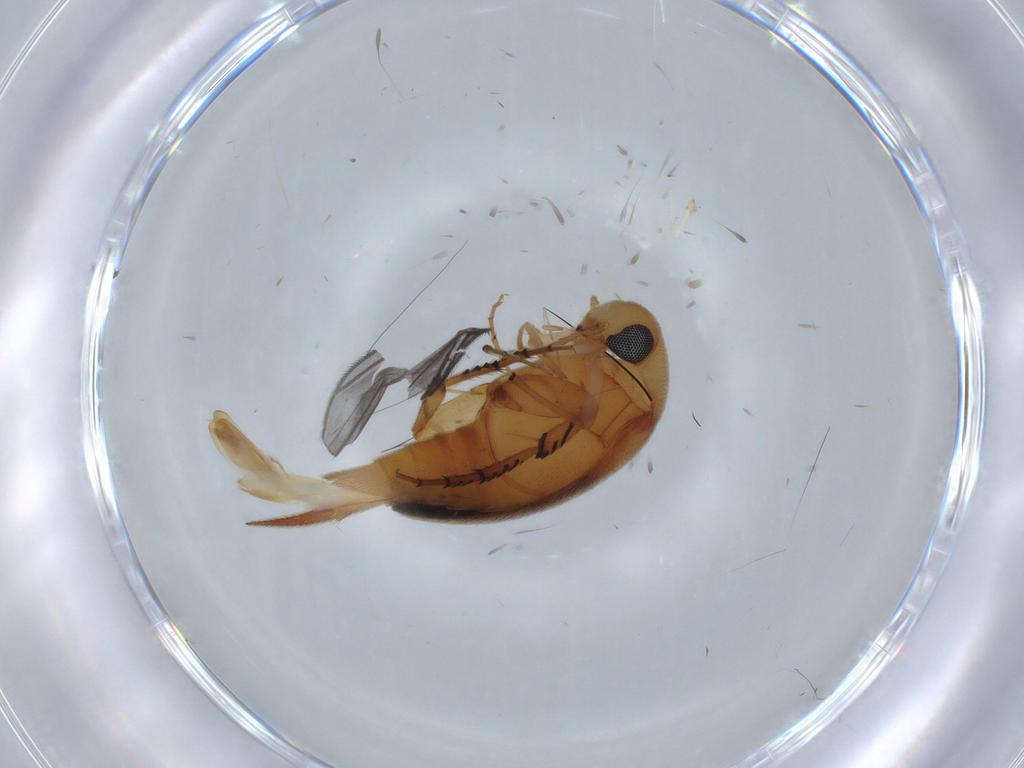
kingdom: Animalia
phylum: Arthropoda
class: Insecta
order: Coleoptera
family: Mordellidae
